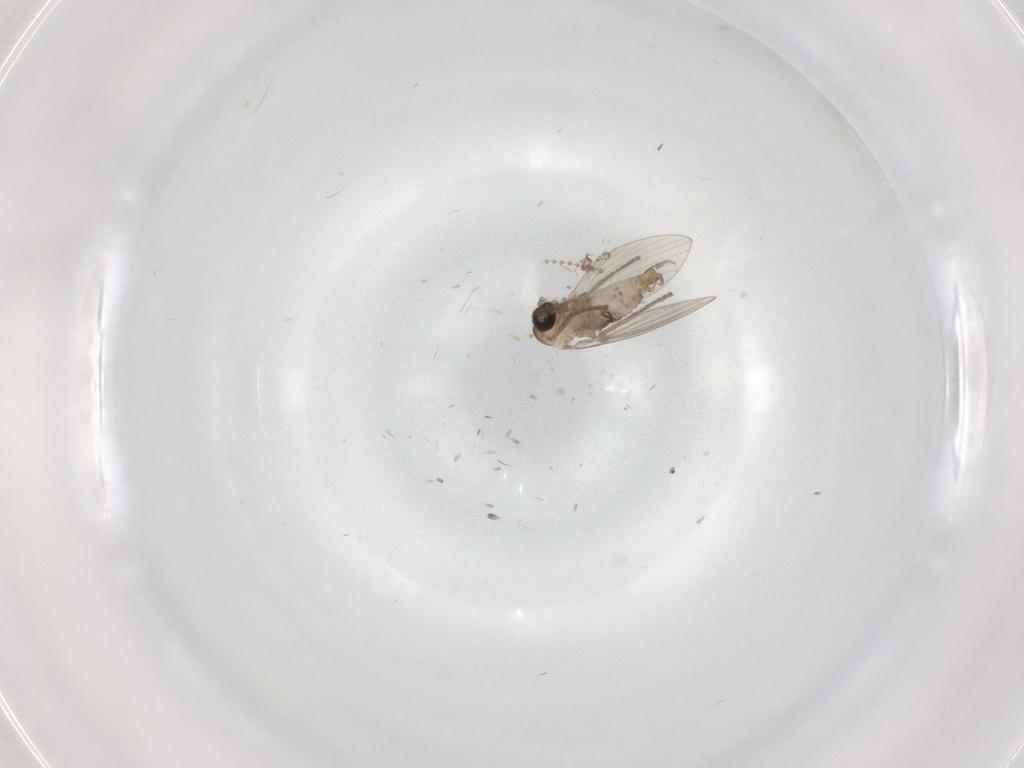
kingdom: Animalia
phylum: Arthropoda
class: Insecta
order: Diptera
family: Psychodidae
